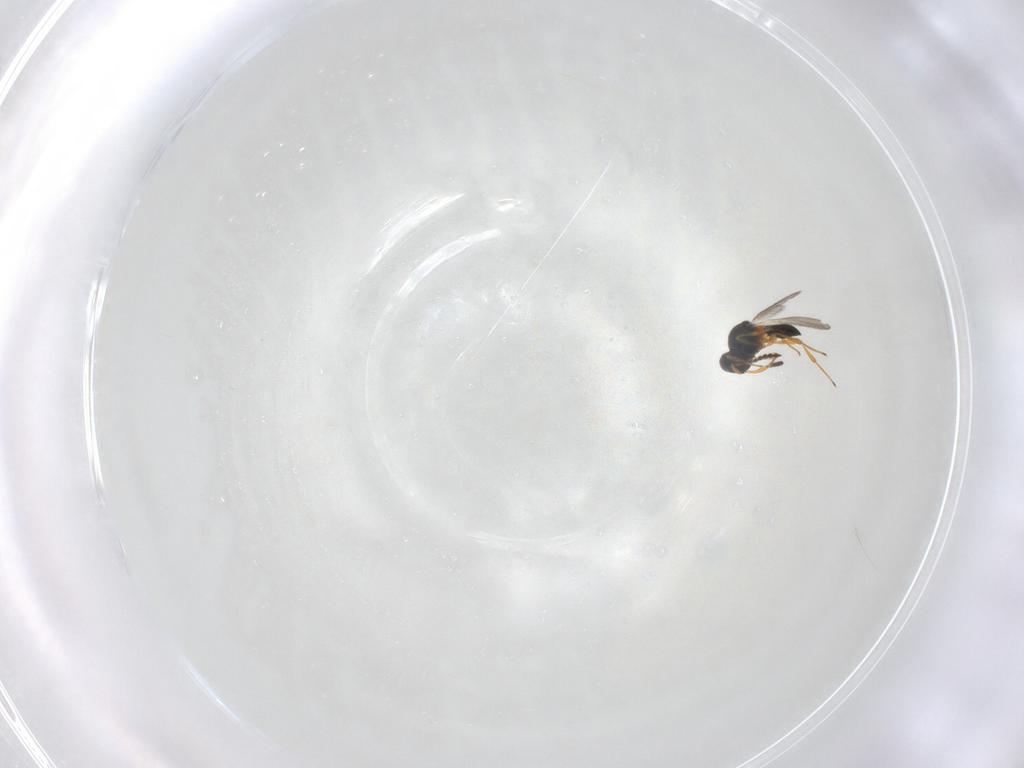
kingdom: Animalia
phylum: Arthropoda
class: Insecta
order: Hymenoptera
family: Platygastridae
